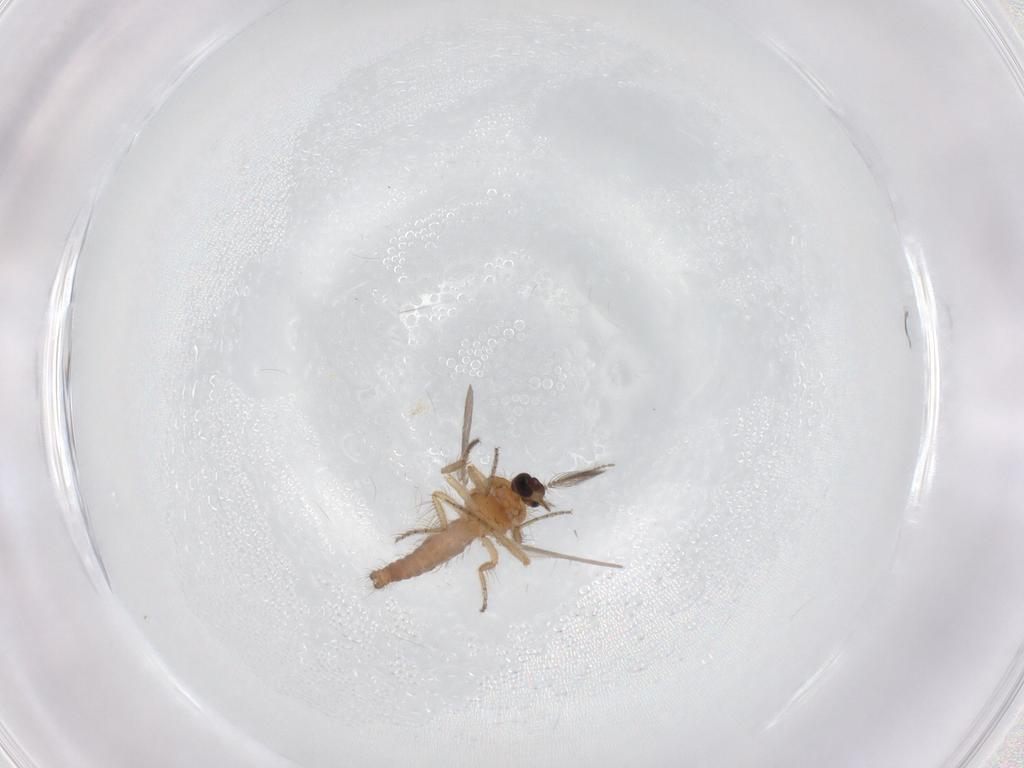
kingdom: Animalia
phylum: Arthropoda
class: Insecta
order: Diptera
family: Ceratopogonidae
